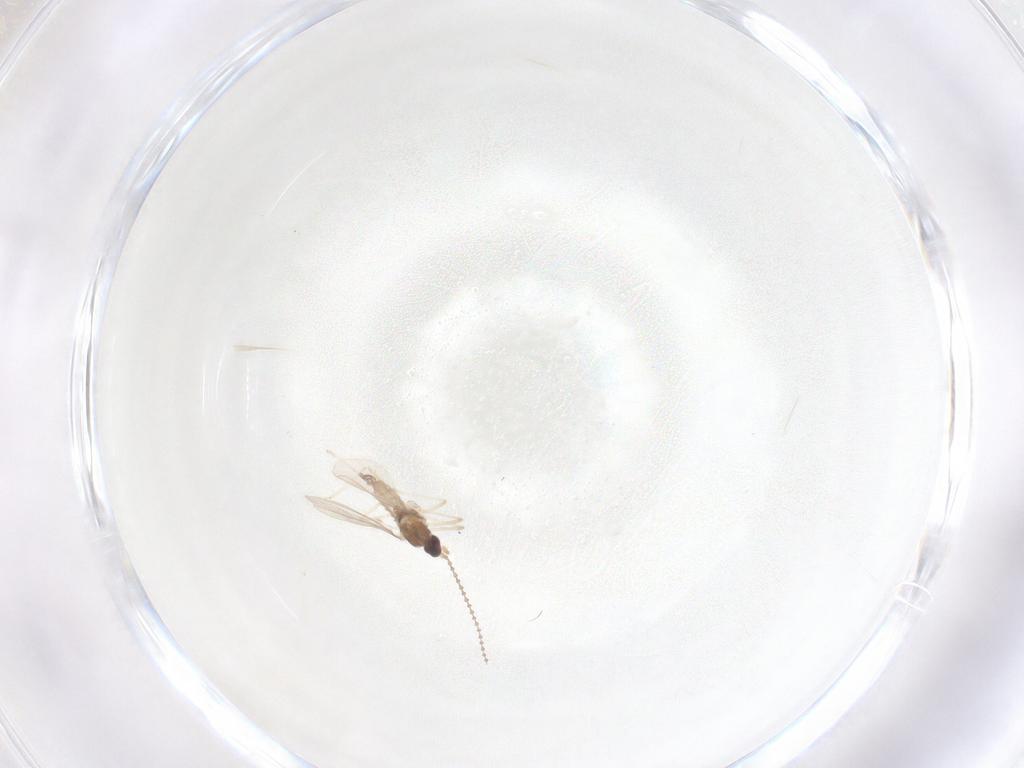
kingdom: Animalia
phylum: Arthropoda
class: Insecta
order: Diptera
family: Cecidomyiidae
